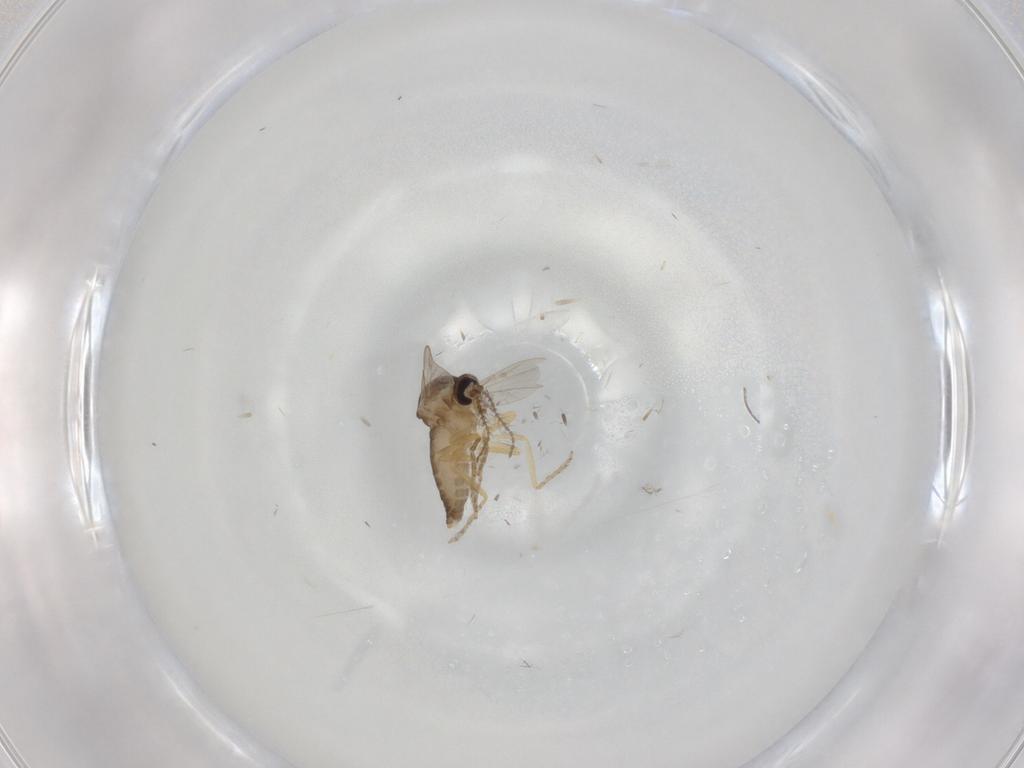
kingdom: Animalia
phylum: Arthropoda
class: Insecta
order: Diptera
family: Ceratopogonidae
